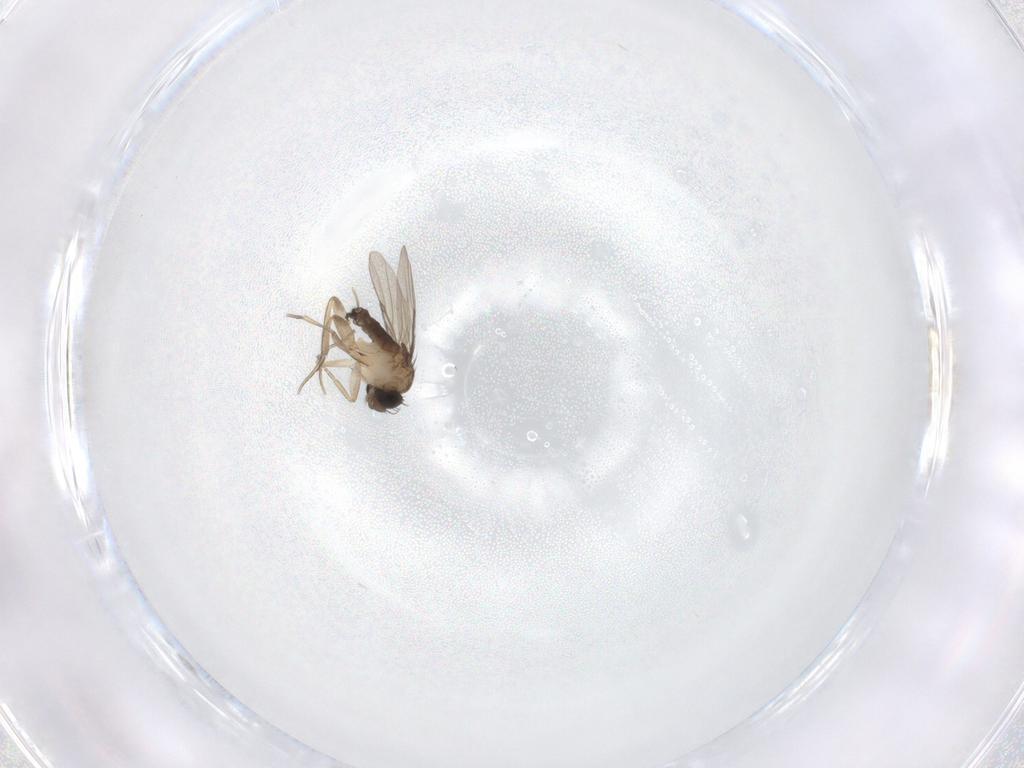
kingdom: Animalia
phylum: Arthropoda
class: Insecta
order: Diptera
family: Phoridae
